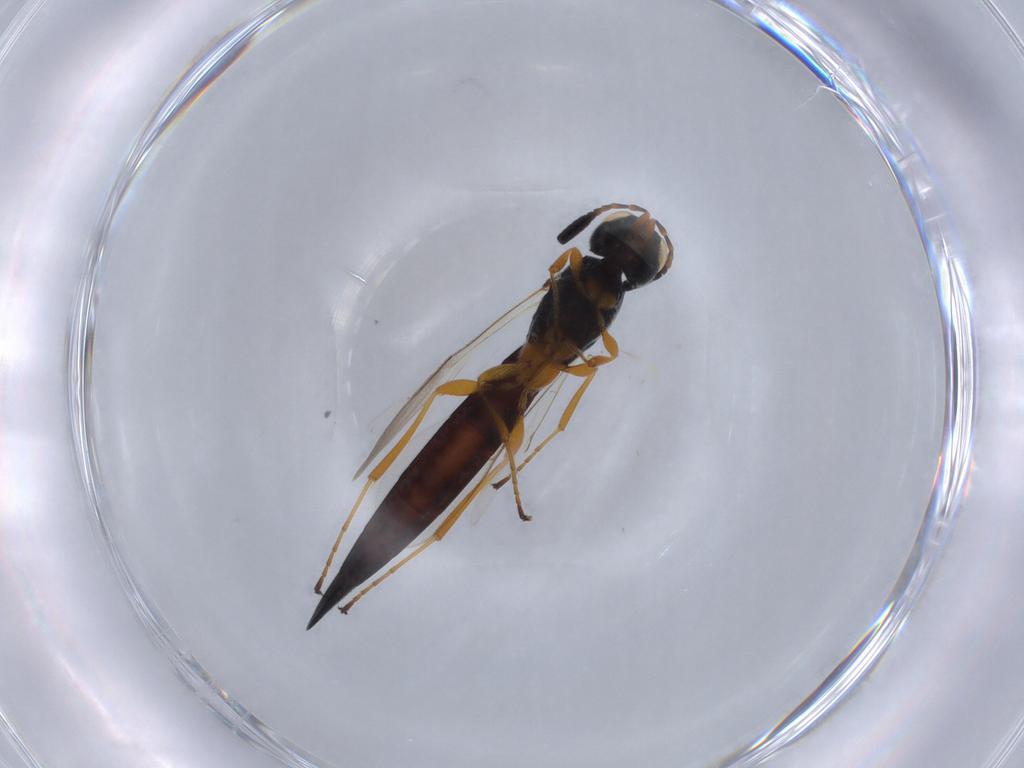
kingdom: Animalia
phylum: Arthropoda
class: Insecta
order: Hymenoptera
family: Scelionidae
